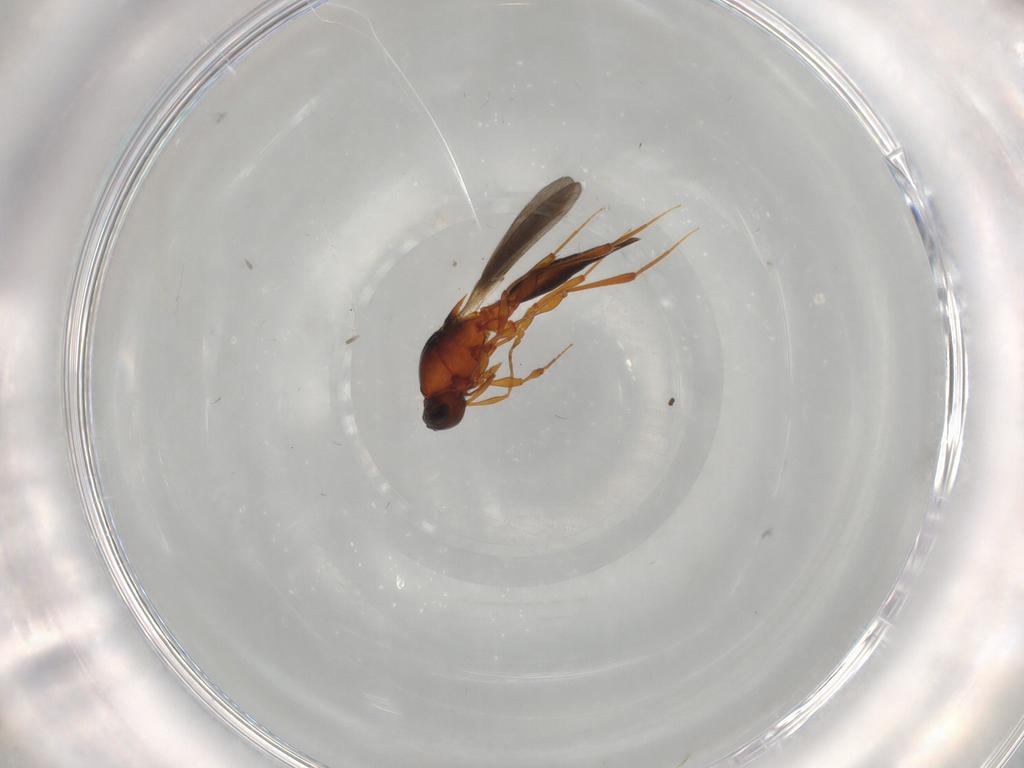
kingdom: Animalia
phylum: Arthropoda
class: Insecta
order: Hymenoptera
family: Platygastridae
